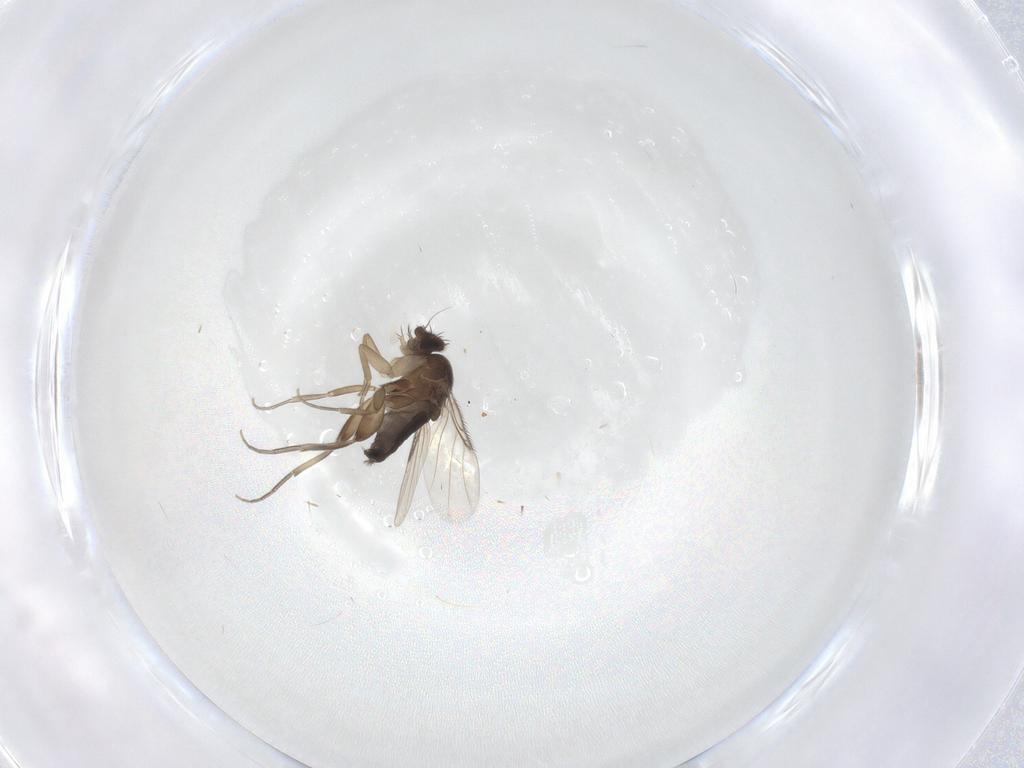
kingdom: Animalia
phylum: Arthropoda
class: Insecta
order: Diptera
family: Phoridae
